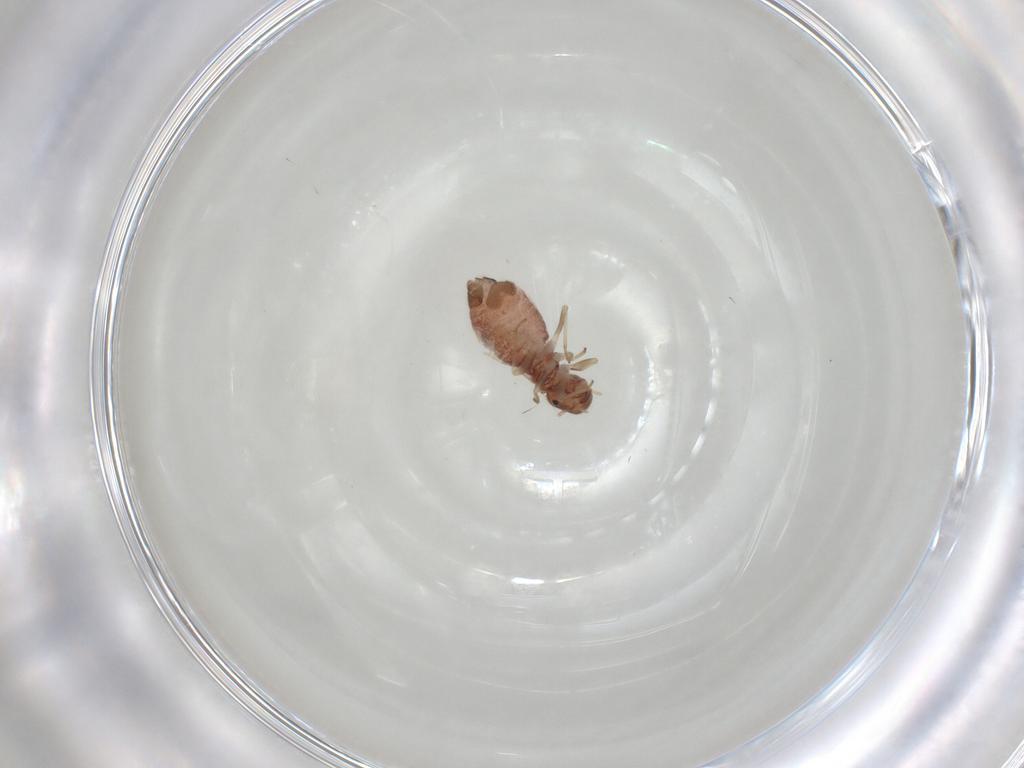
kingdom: Animalia
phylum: Arthropoda
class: Insecta
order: Psocodea
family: Archipsocidae
